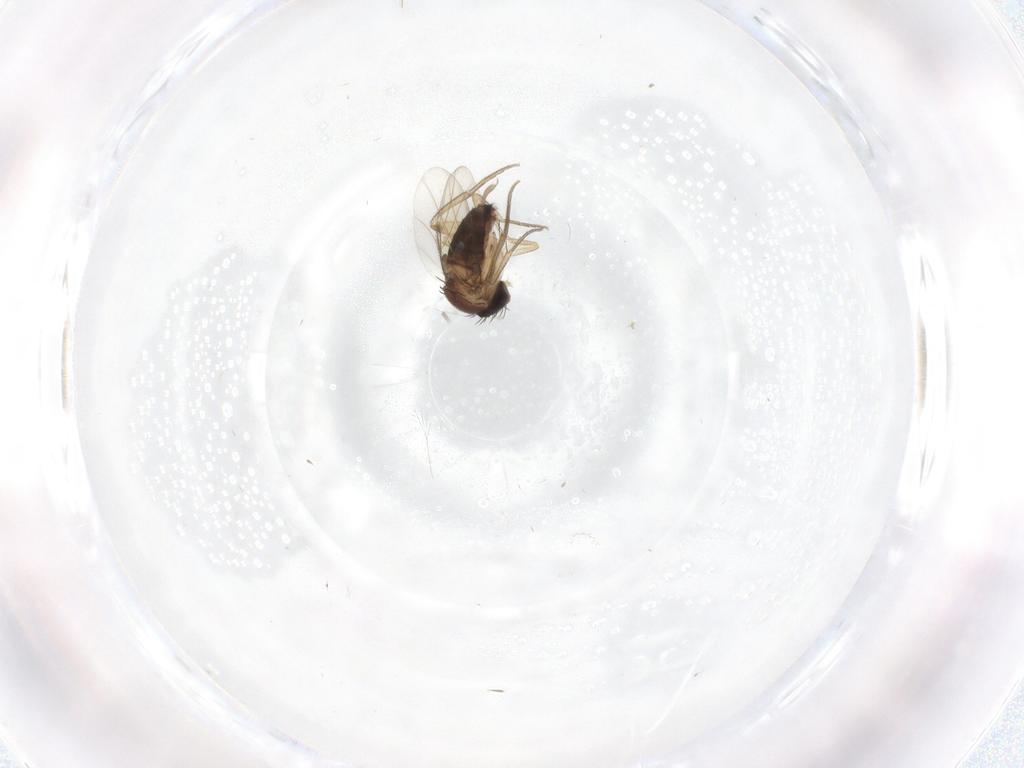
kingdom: Animalia
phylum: Arthropoda
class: Insecta
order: Diptera
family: Phoridae
